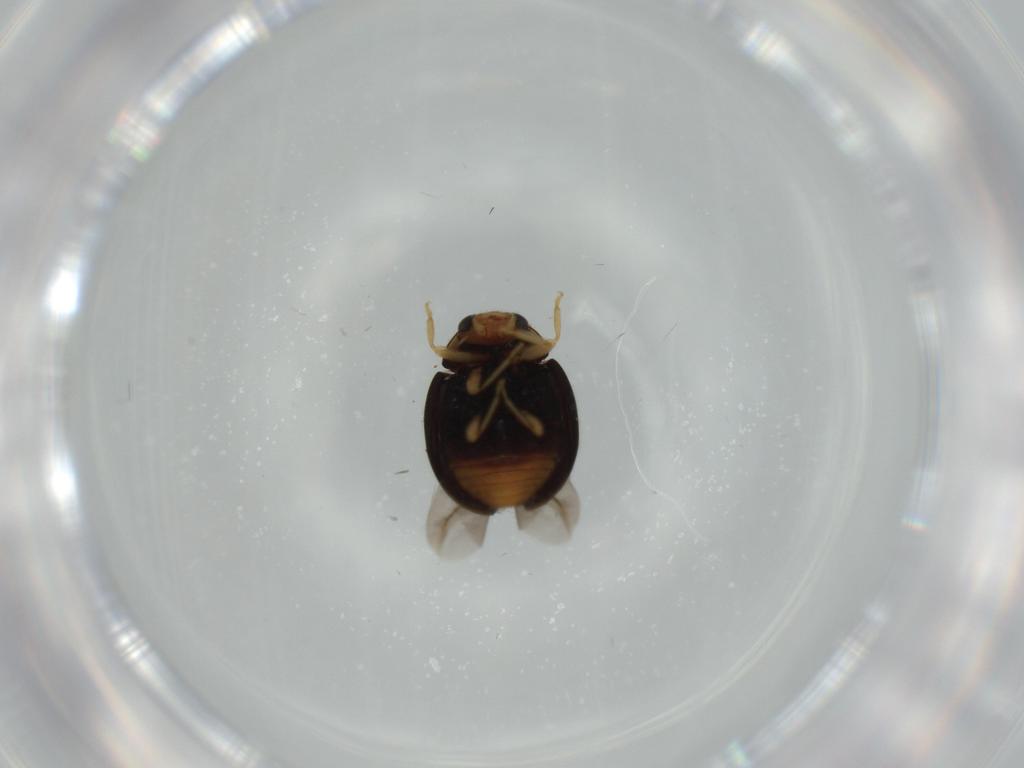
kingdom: Animalia
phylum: Arthropoda
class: Insecta
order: Coleoptera
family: Coccinellidae
